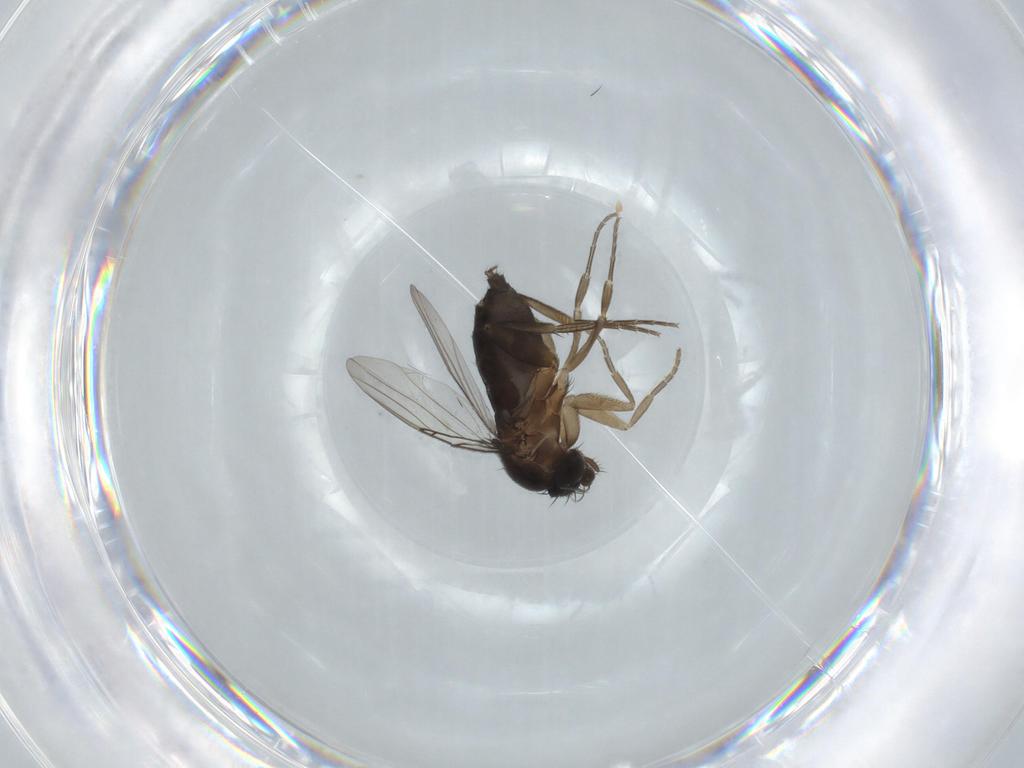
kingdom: Animalia
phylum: Arthropoda
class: Insecta
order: Diptera
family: Phoridae
